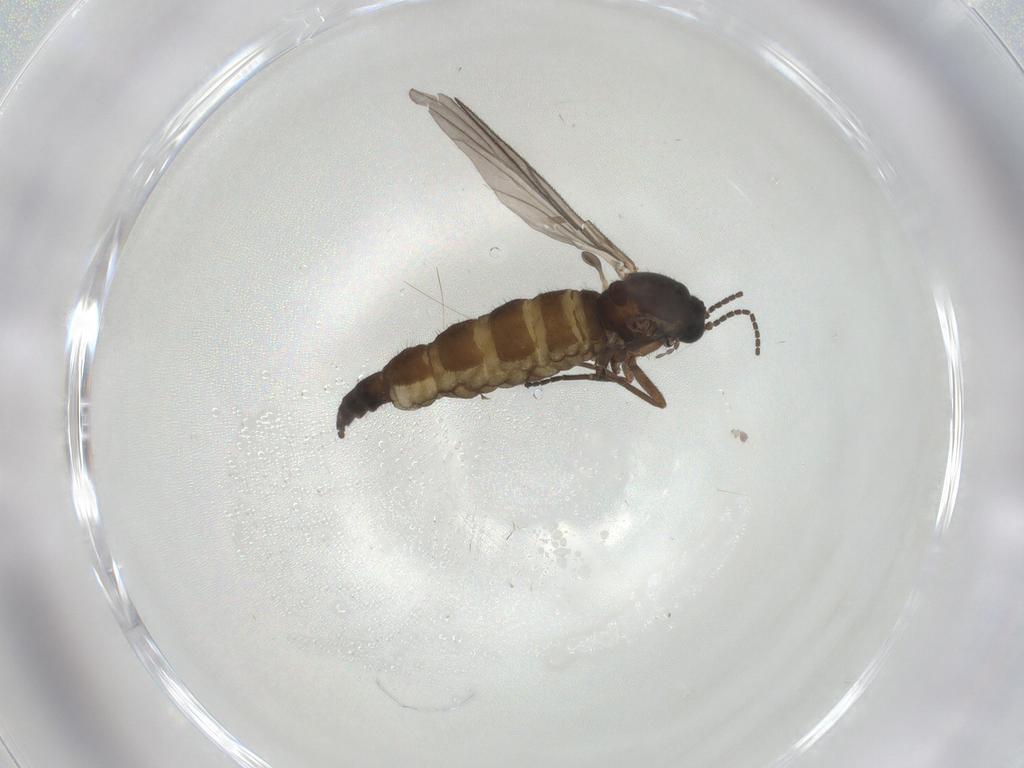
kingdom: Animalia
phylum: Arthropoda
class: Insecta
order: Diptera
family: Sciaridae
